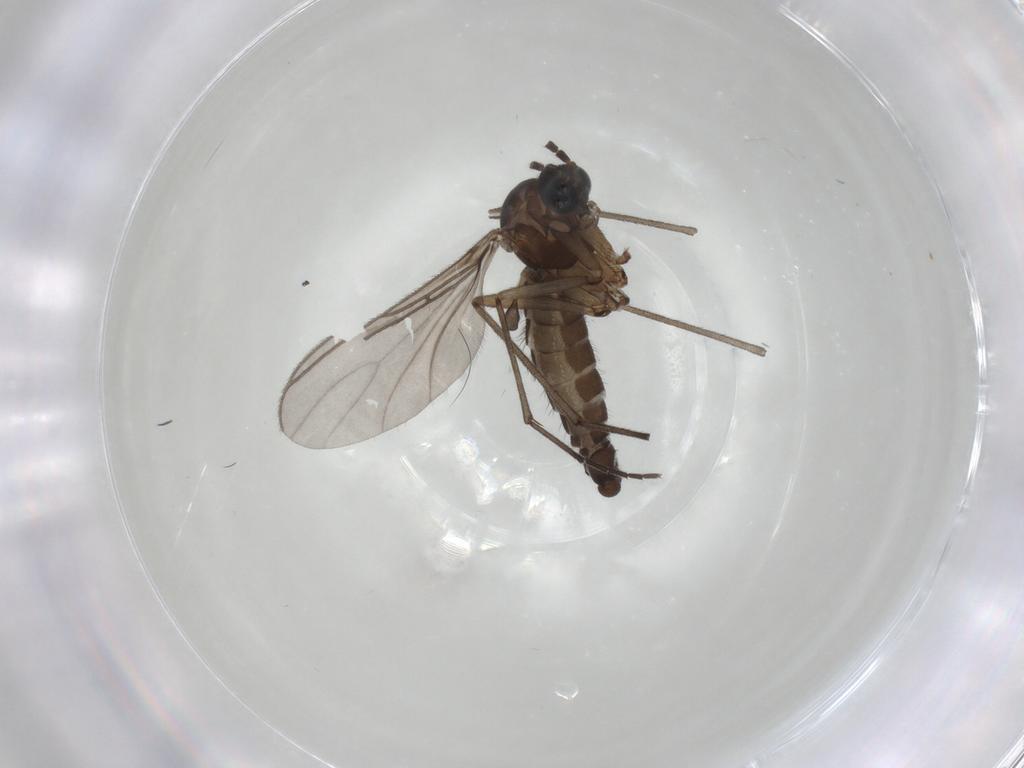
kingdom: Animalia
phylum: Arthropoda
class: Insecta
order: Diptera
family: Sciaridae
